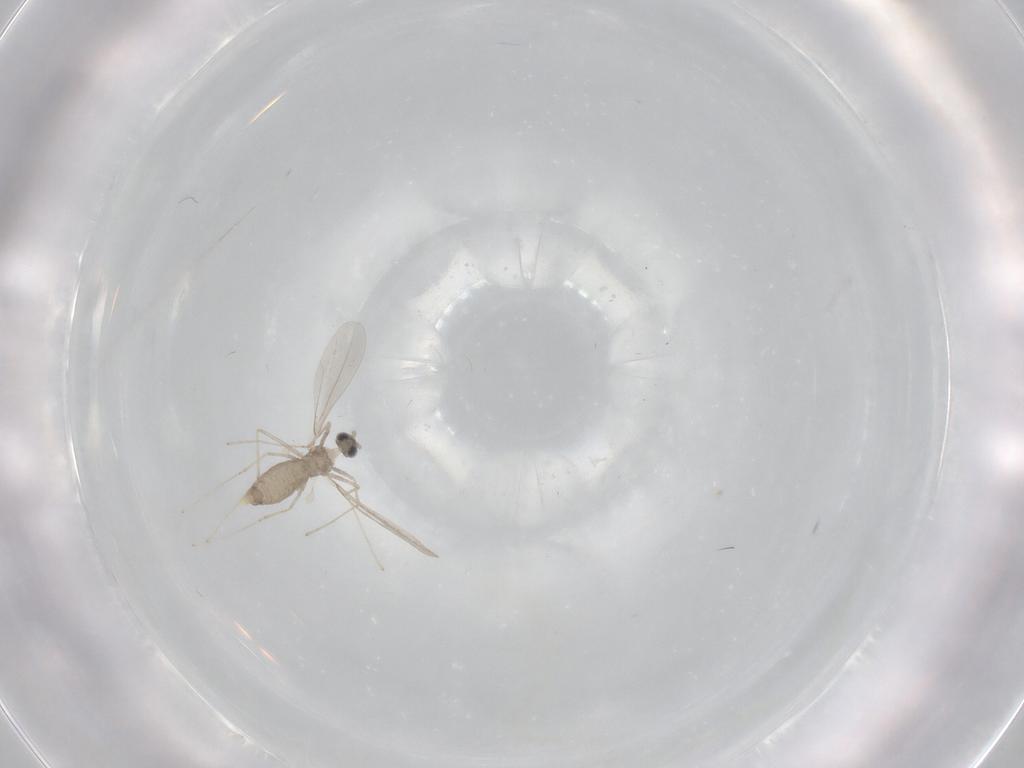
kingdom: Animalia
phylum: Arthropoda
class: Insecta
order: Diptera
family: Cecidomyiidae
